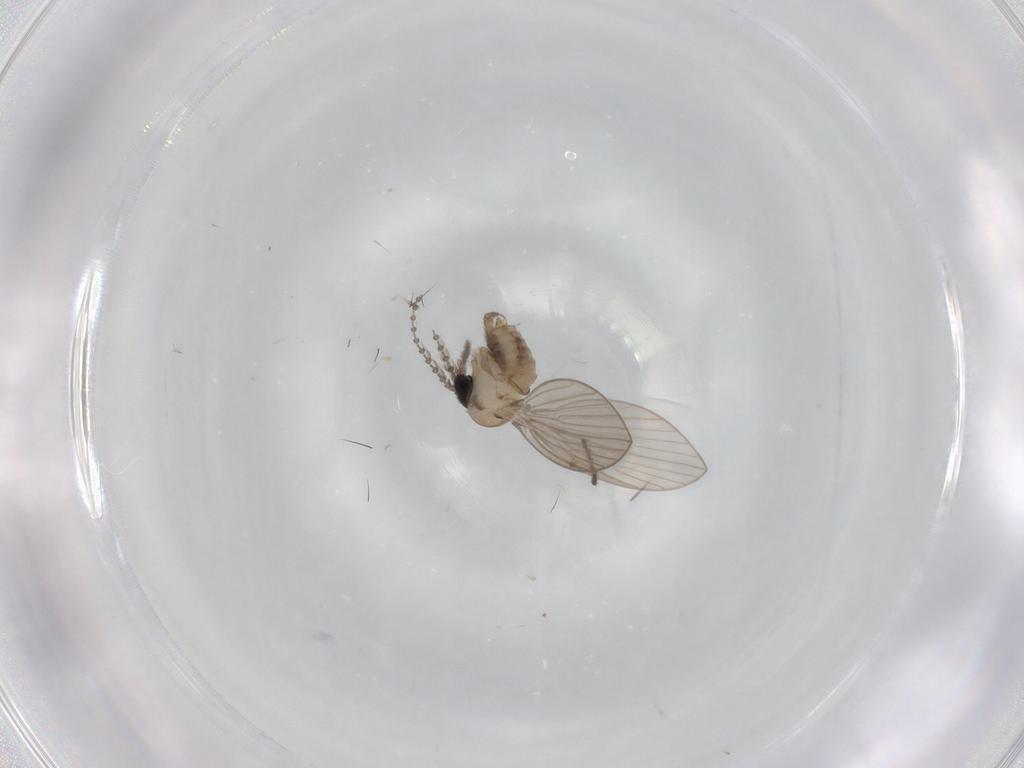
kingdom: Animalia
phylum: Arthropoda
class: Insecta
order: Diptera
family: Psychodidae
